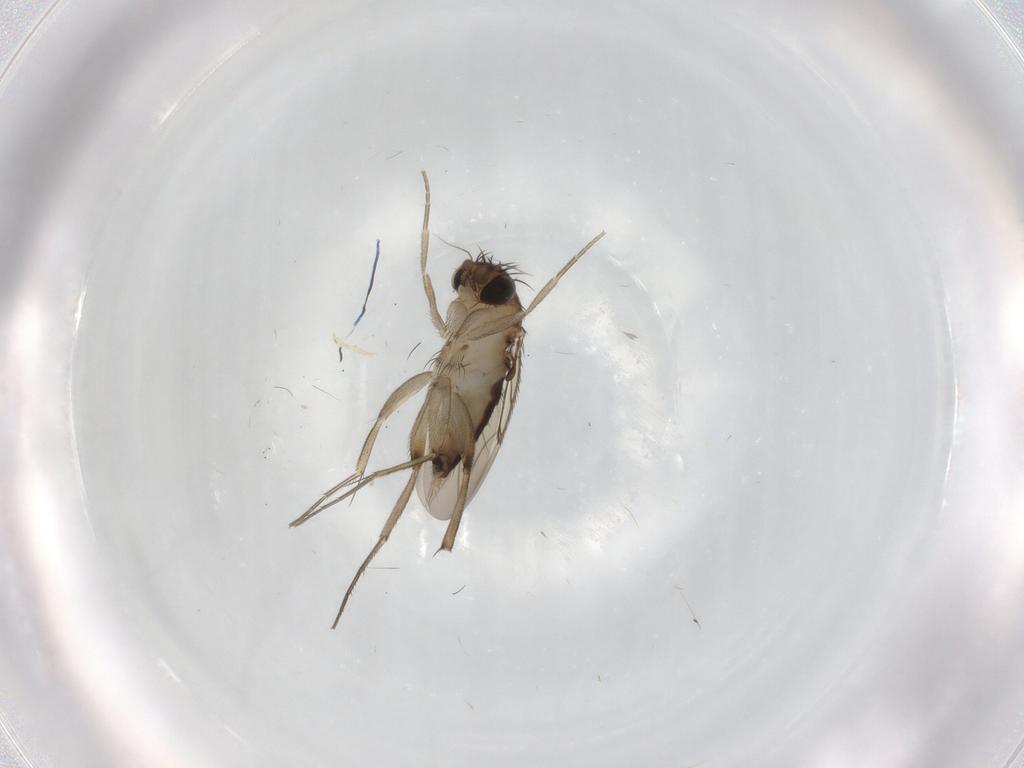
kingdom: Animalia
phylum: Arthropoda
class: Insecta
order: Diptera
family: Phoridae
